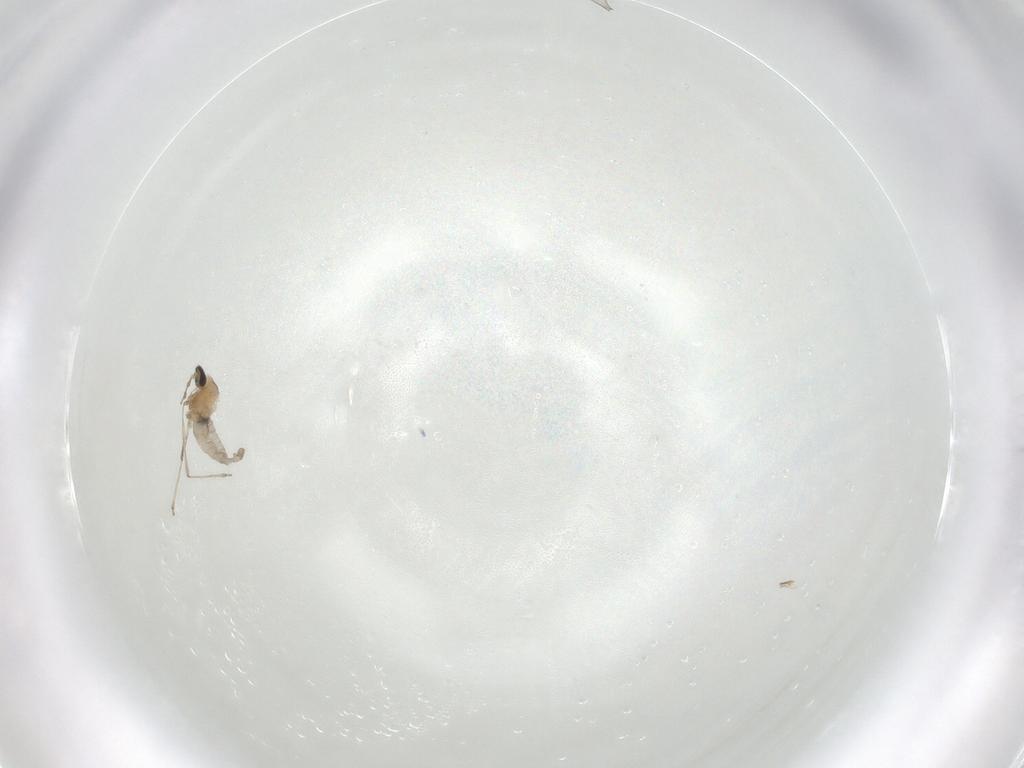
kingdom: Animalia
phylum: Arthropoda
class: Insecta
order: Diptera
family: Cecidomyiidae
